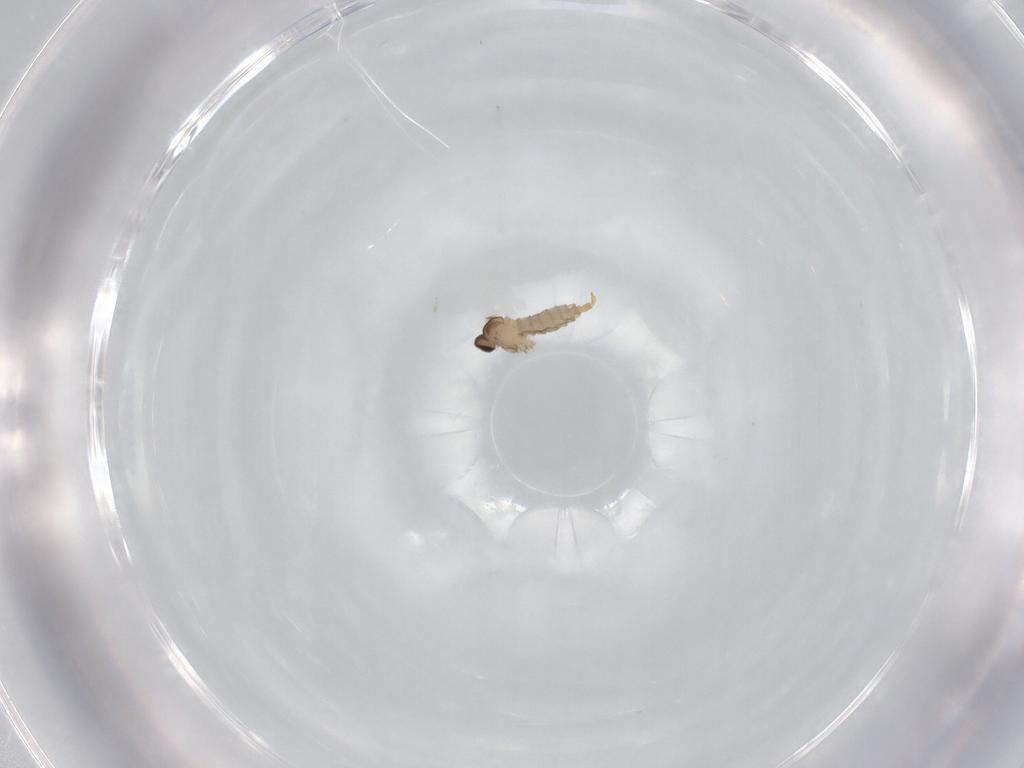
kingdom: Animalia
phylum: Arthropoda
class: Insecta
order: Diptera
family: Cecidomyiidae
